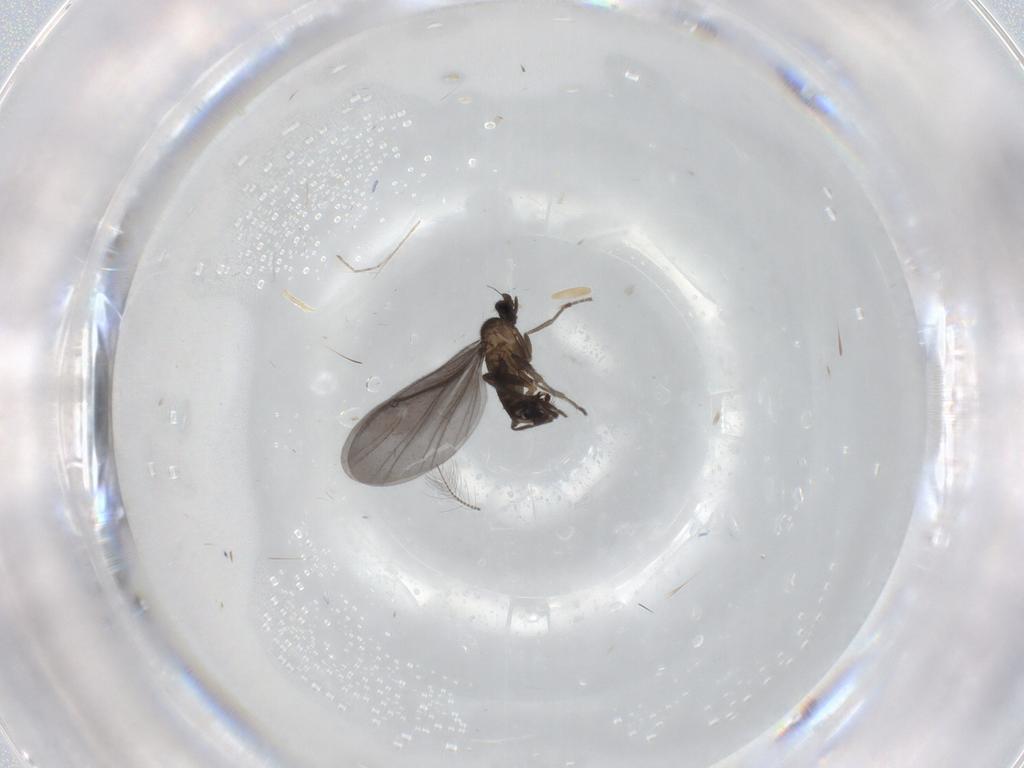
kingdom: Animalia
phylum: Arthropoda
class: Insecta
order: Diptera
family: Phoridae
